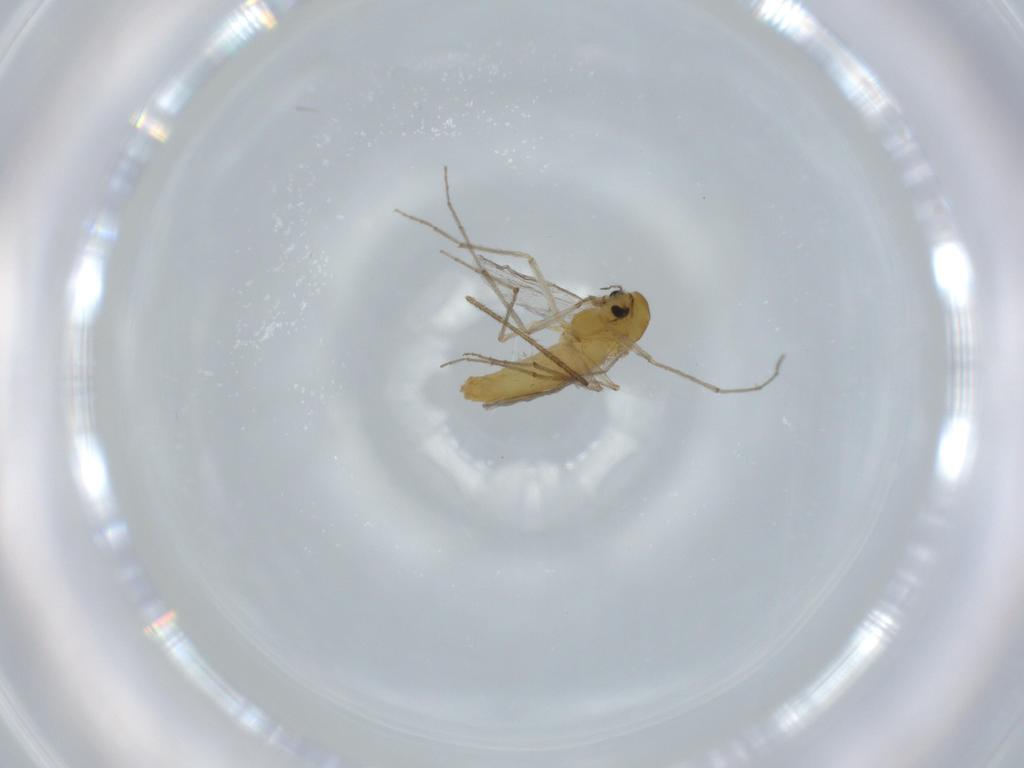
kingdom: Animalia
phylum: Arthropoda
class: Insecta
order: Diptera
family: Chironomidae
